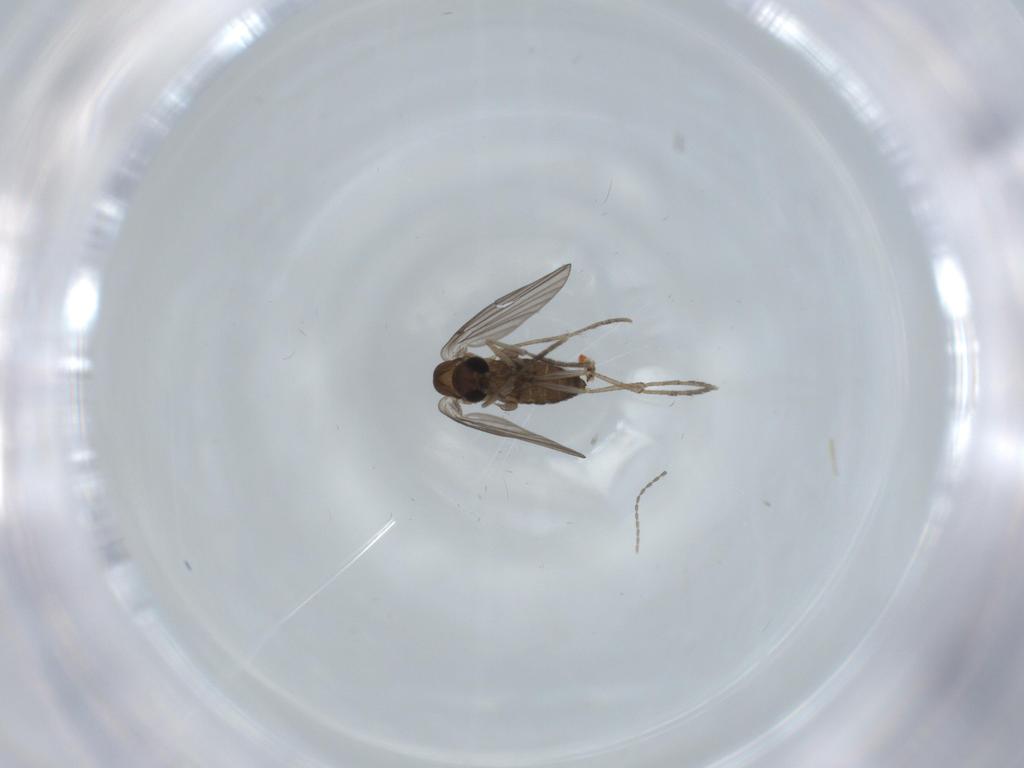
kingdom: Animalia
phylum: Arthropoda
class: Insecta
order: Diptera
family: Psychodidae
